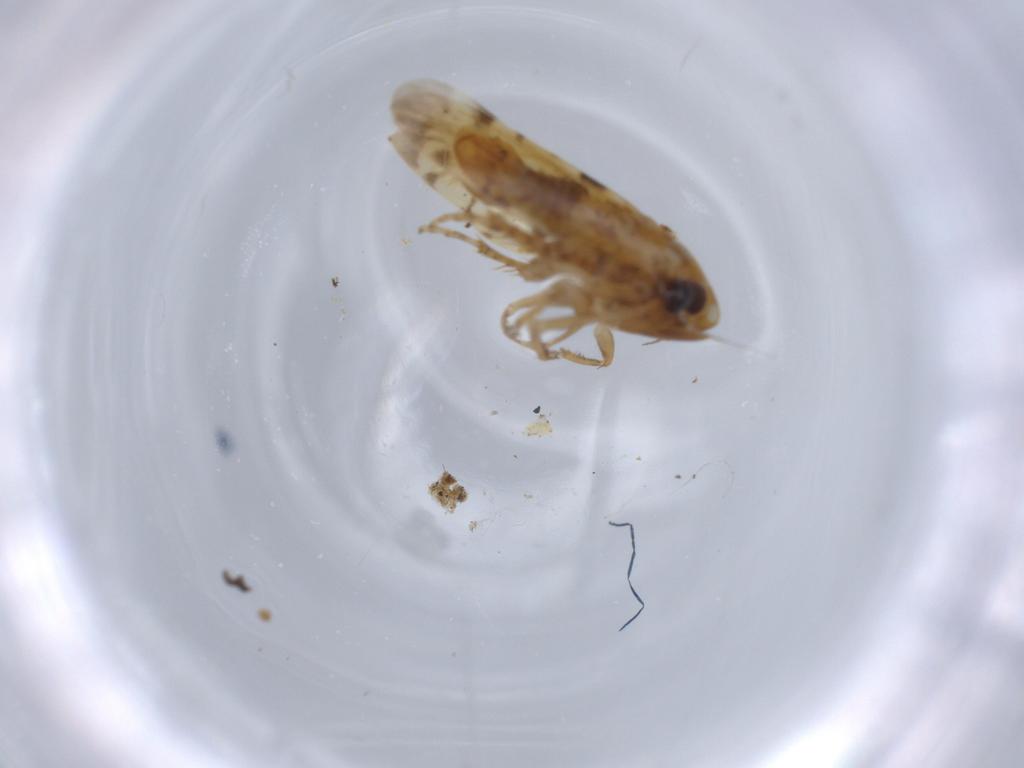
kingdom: Animalia
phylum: Arthropoda
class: Insecta
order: Hemiptera
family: Cicadellidae
